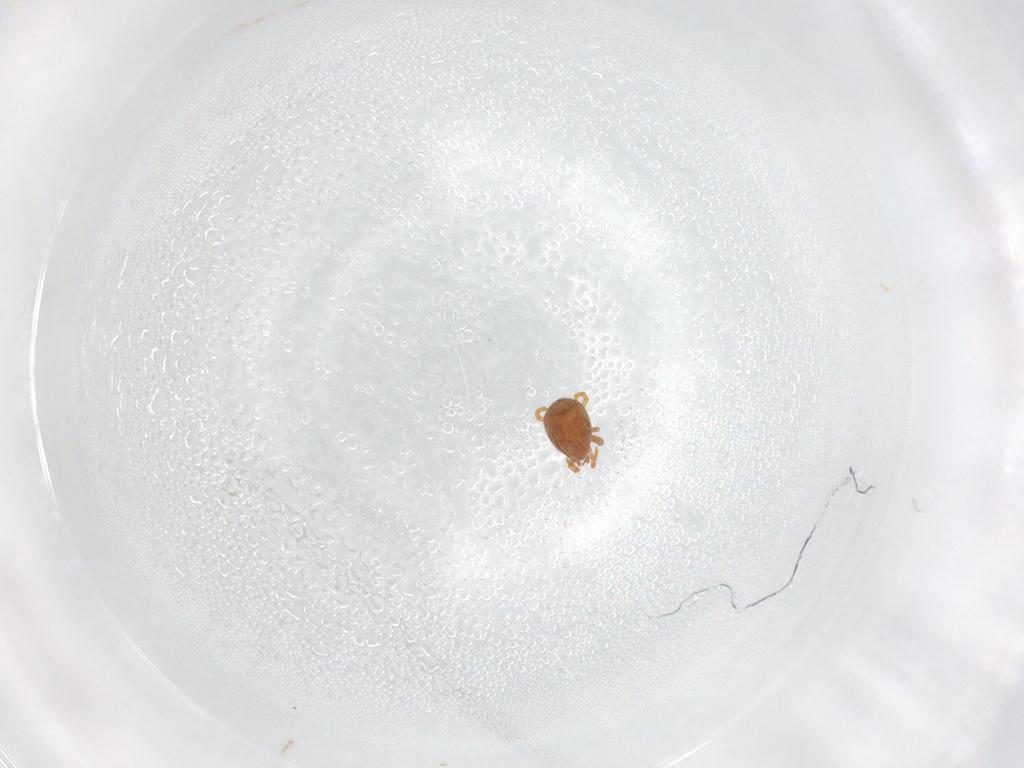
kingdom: Animalia
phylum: Arthropoda
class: Arachnida
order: Mesostigmata
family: Parasitidae
